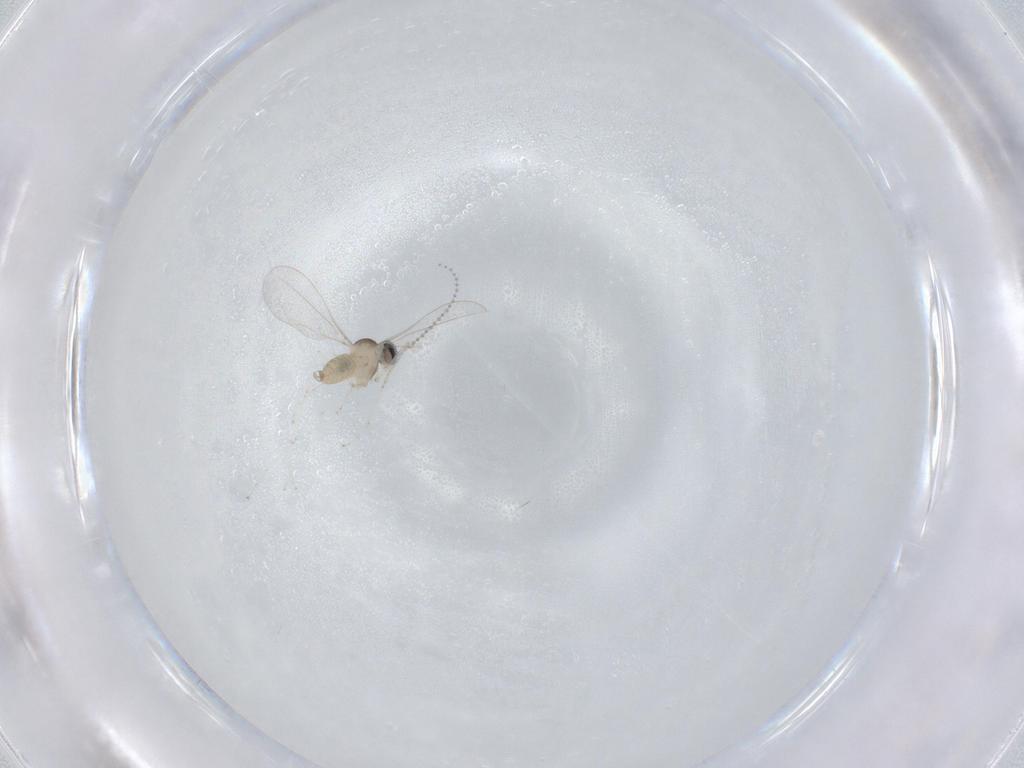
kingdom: Animalia
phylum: Arthropoda
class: Insecta
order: Diptera
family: Cecidomyiidae
